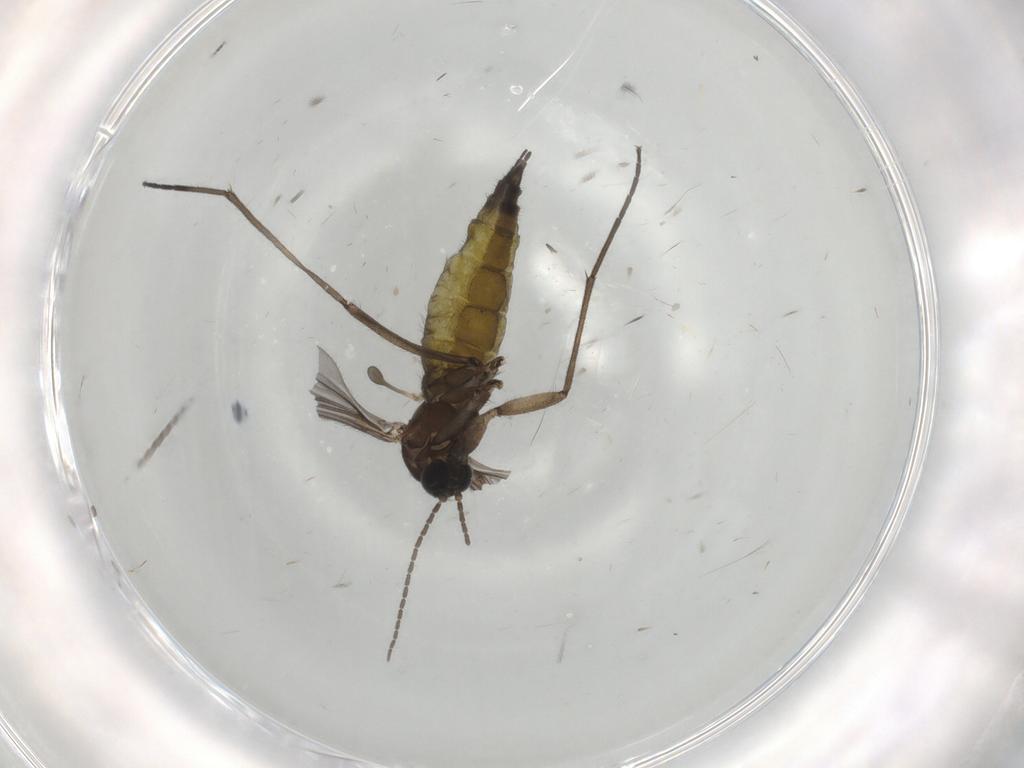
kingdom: Animalia
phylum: Arthropoda
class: Insecta
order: Diptera
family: Sciaridae
